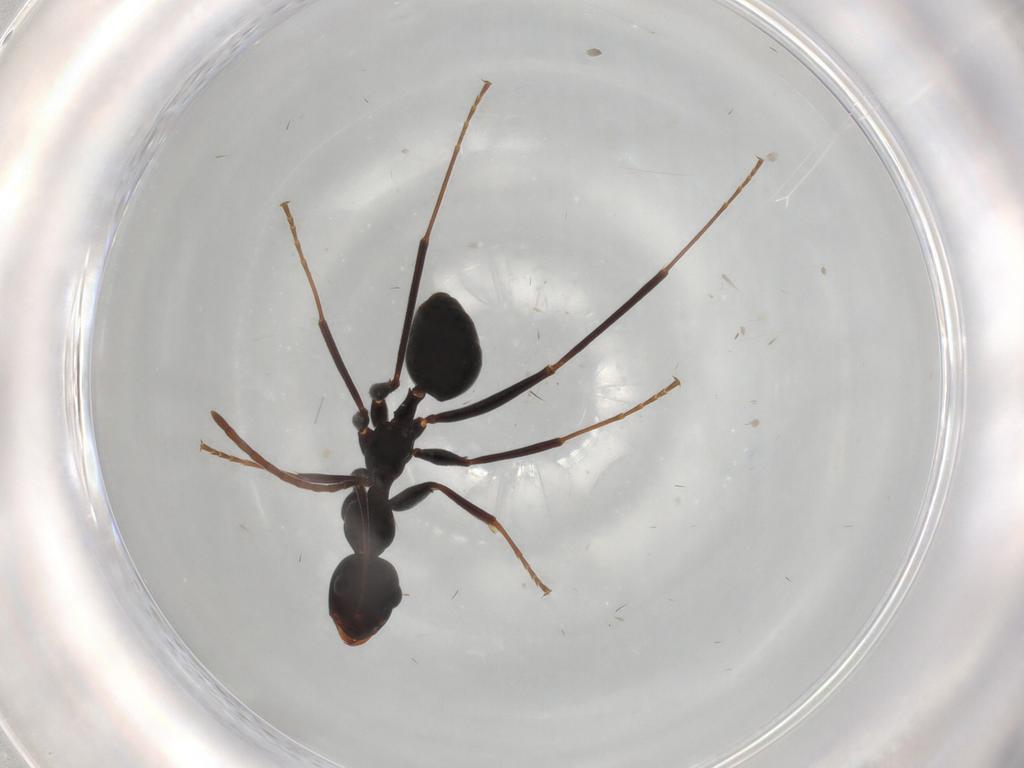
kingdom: Animalia
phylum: Arthropoda
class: Insecta
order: Hymenoptera
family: Formicidae
